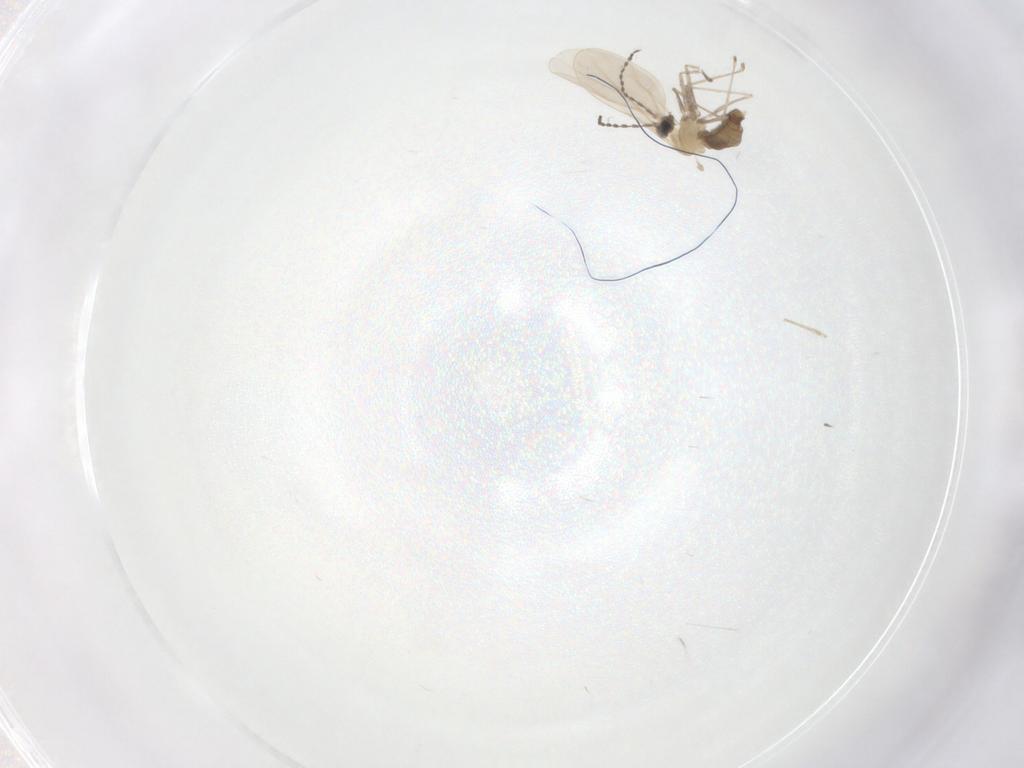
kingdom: Animalia
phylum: Arthropoda
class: Insecta
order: Diptera
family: Cecidomyiidae
